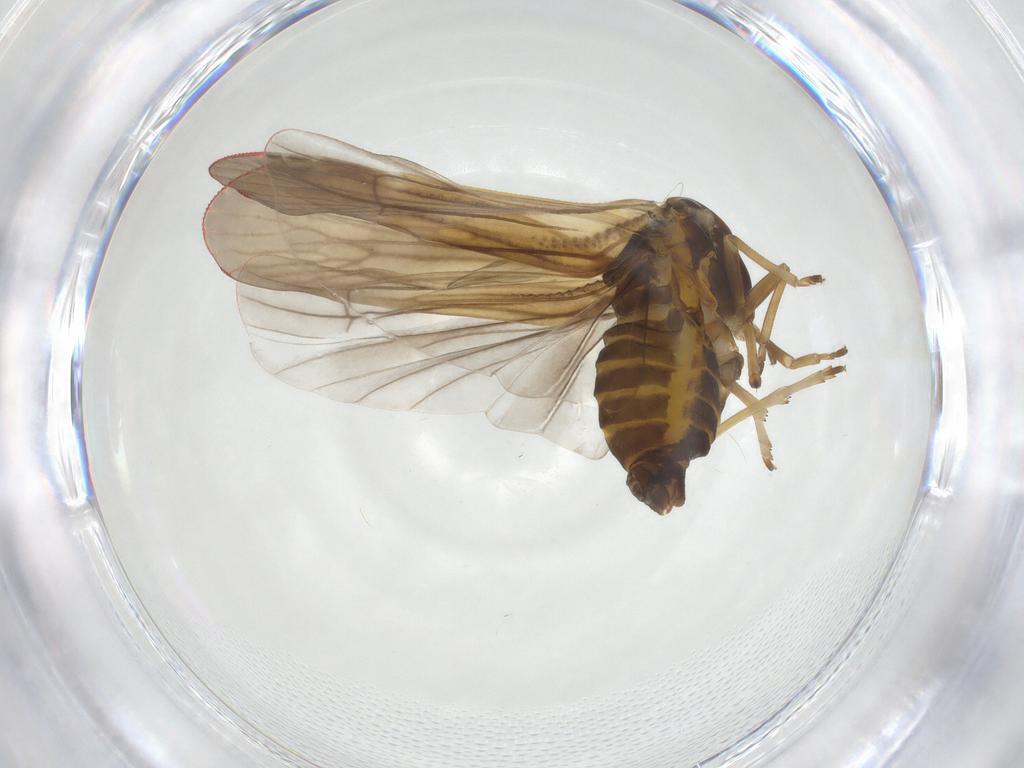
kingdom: Animalia
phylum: Arthropoda
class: Insecta
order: Hemiptera
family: Derbidae
